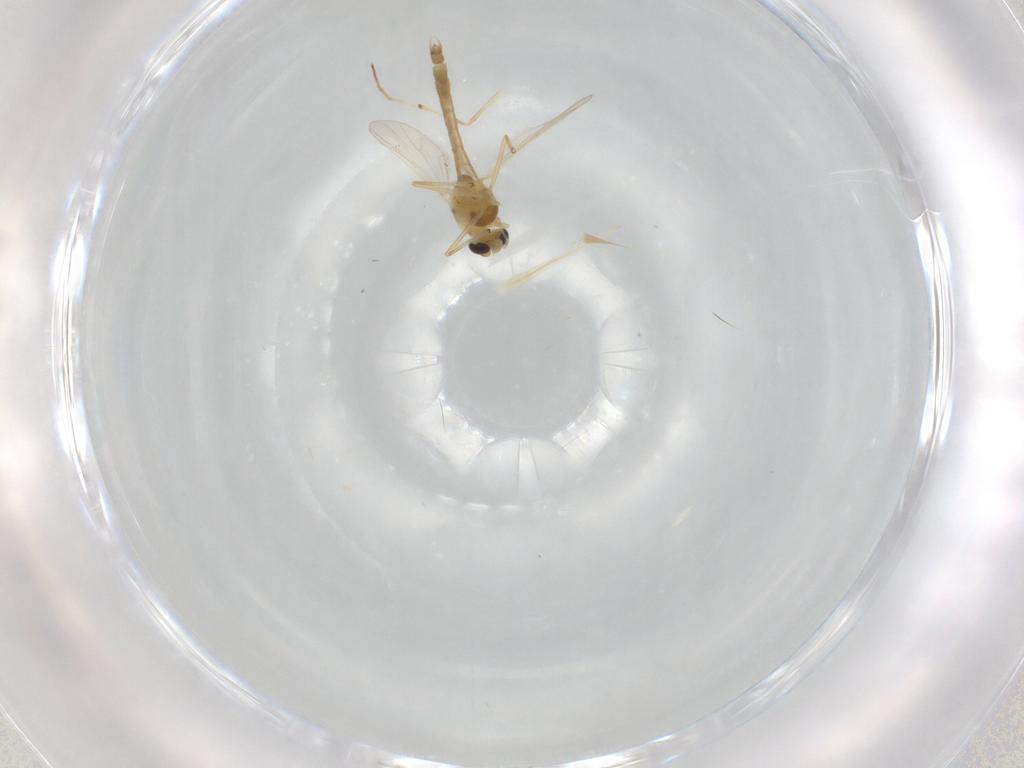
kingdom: Animalia
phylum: Arthropoda
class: Insecta
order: Diptera
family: Chironomidae
